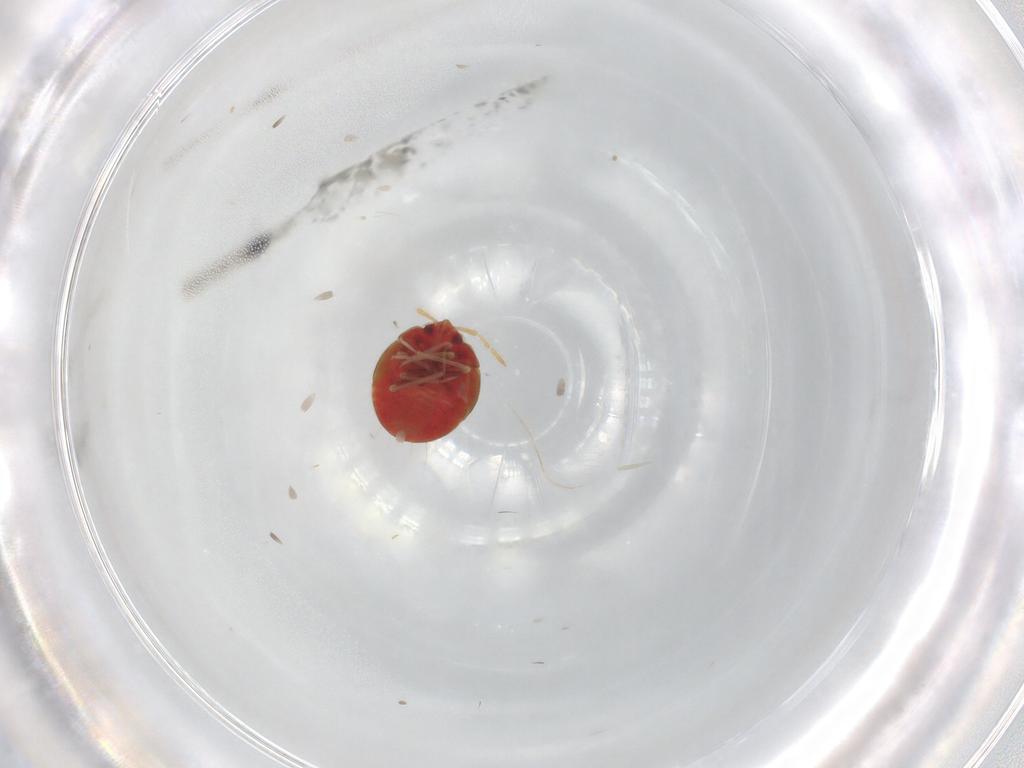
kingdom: Animalia
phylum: Arthropoda
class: Insecta
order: Hemiptera
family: Anthocoridae
